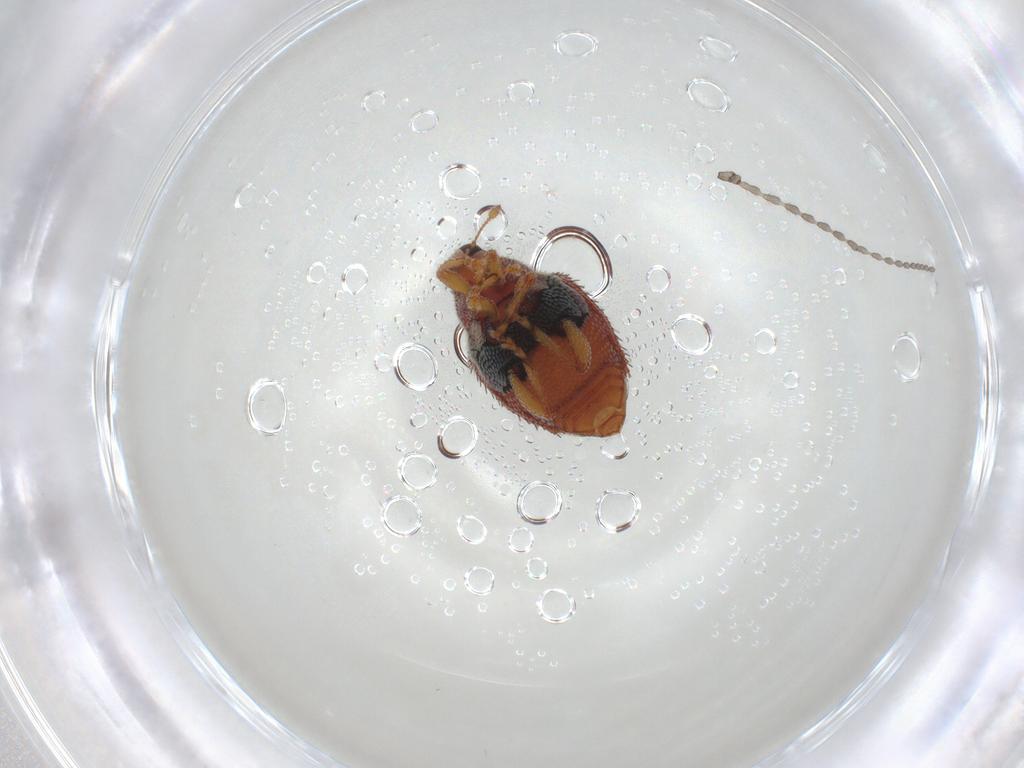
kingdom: Animalia
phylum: Arthropoda
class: Insecta
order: Coleoptera
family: Curculionidae
